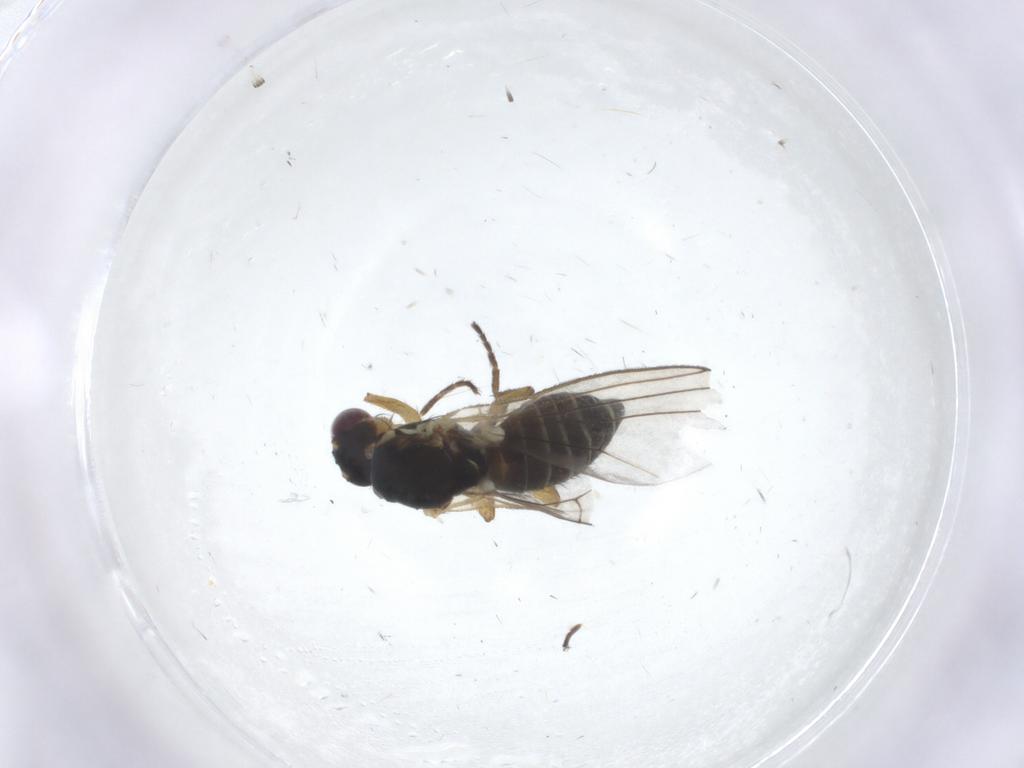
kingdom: Animalia
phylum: Arthropoda
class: Insecta
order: Diptera
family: Agromyzidae
